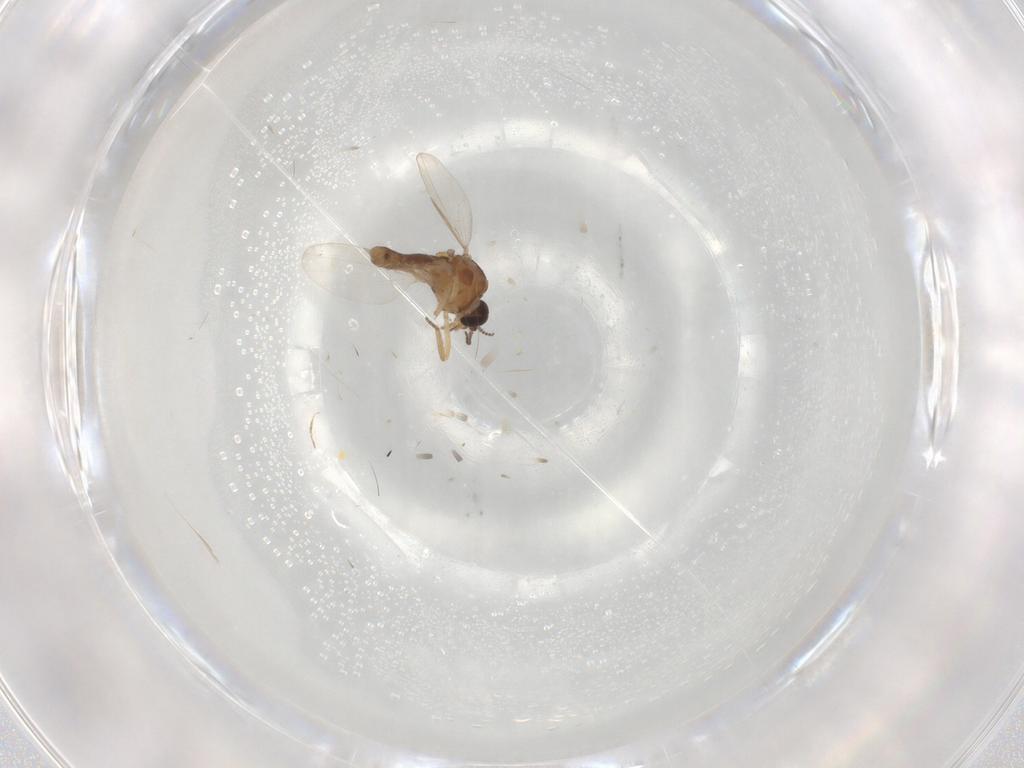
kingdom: Animalia
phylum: Arthropoda
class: Insecta
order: Diptera
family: Ceratopogonidae
